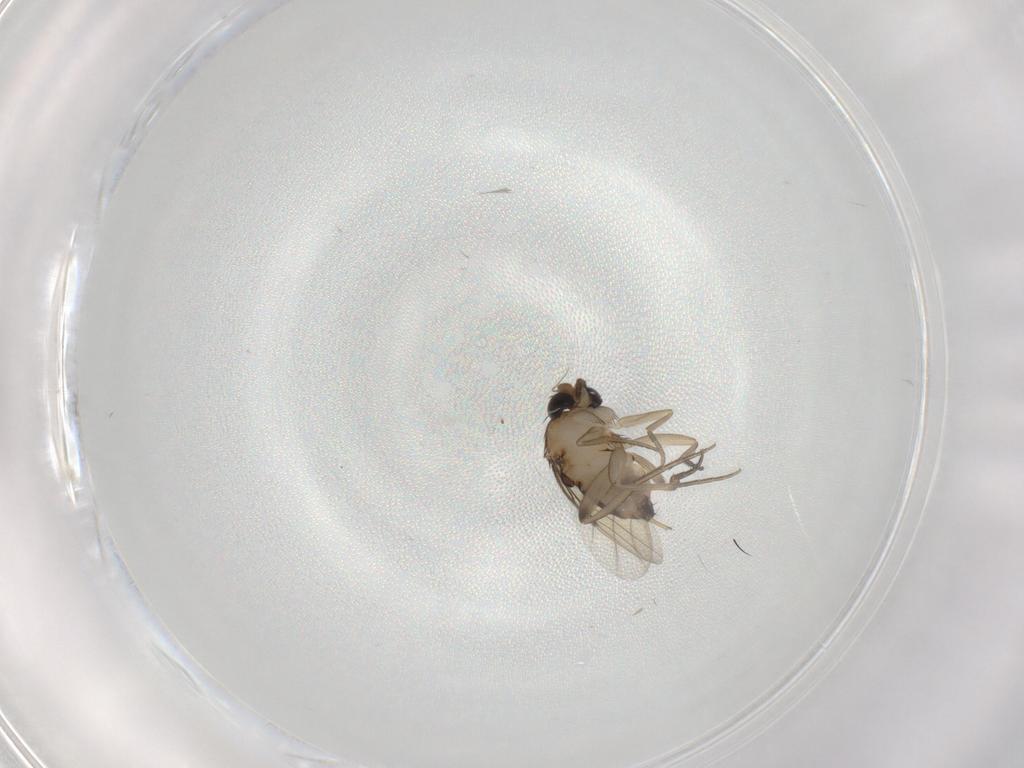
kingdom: Animalia
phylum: Arthropoda
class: Insecta
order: Diptera
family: Phoridae
